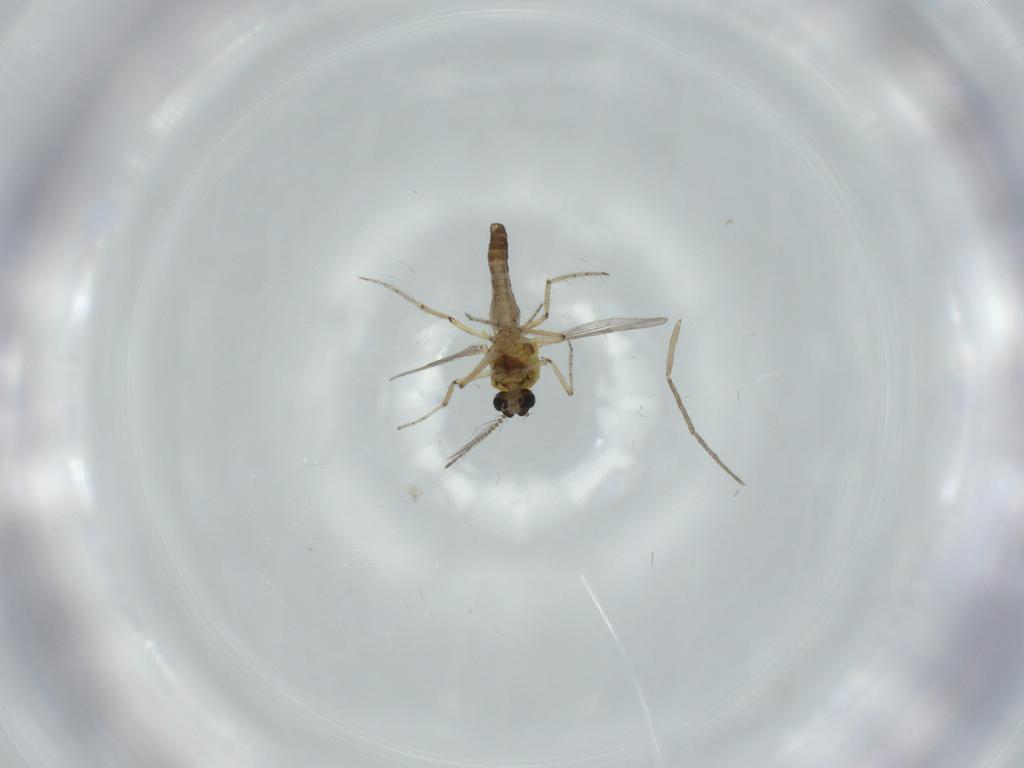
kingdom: Animalia
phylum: Arthropoda
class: Insecta
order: Diptera
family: Ceratopogonidae
